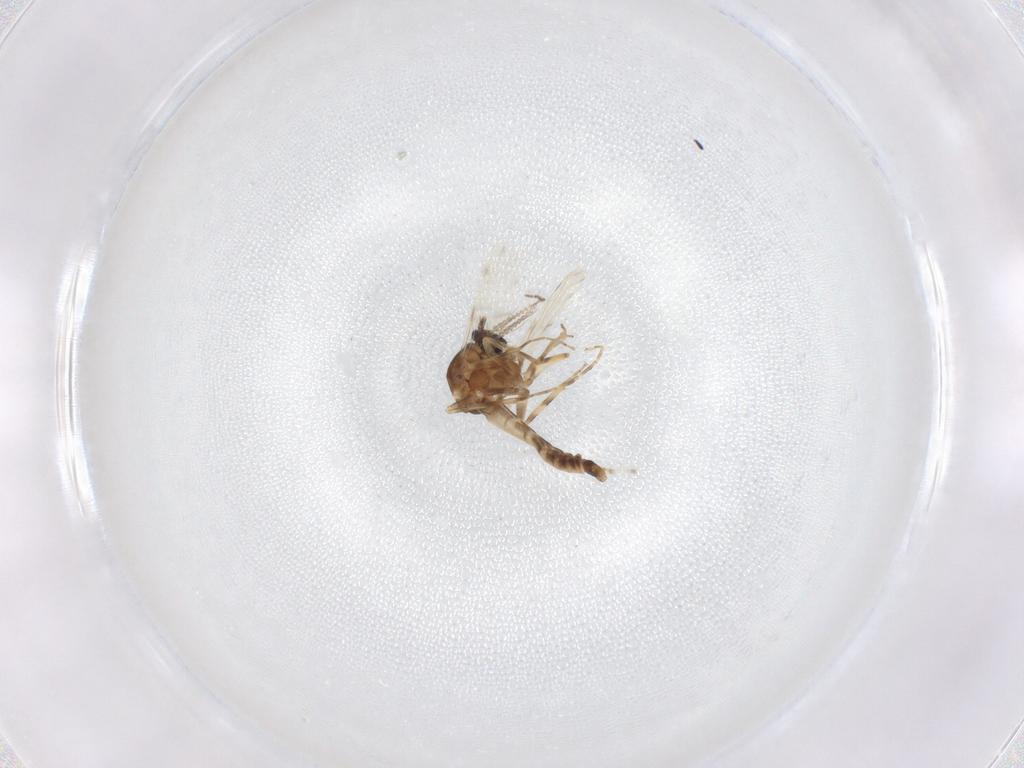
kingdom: Animalia
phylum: Arthropoda
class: Insecta
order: Diptera
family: Ceratopogonidae
